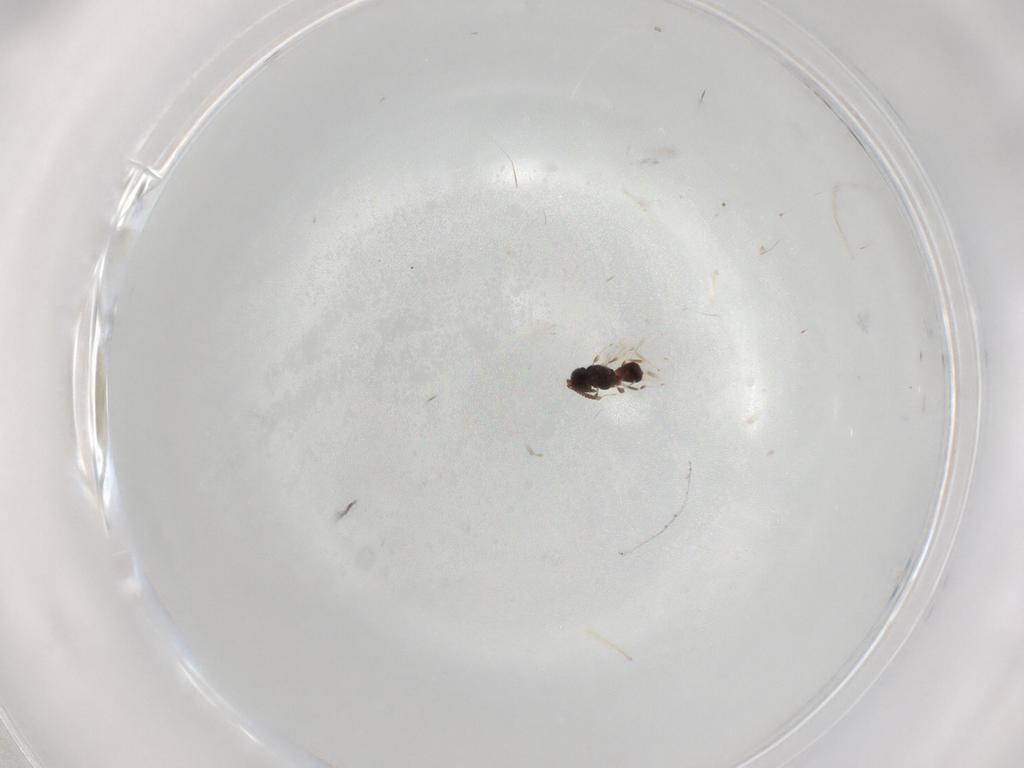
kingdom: Animalia
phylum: Arthropoda
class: Insecta
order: Hymenoptera
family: Scelionidae
